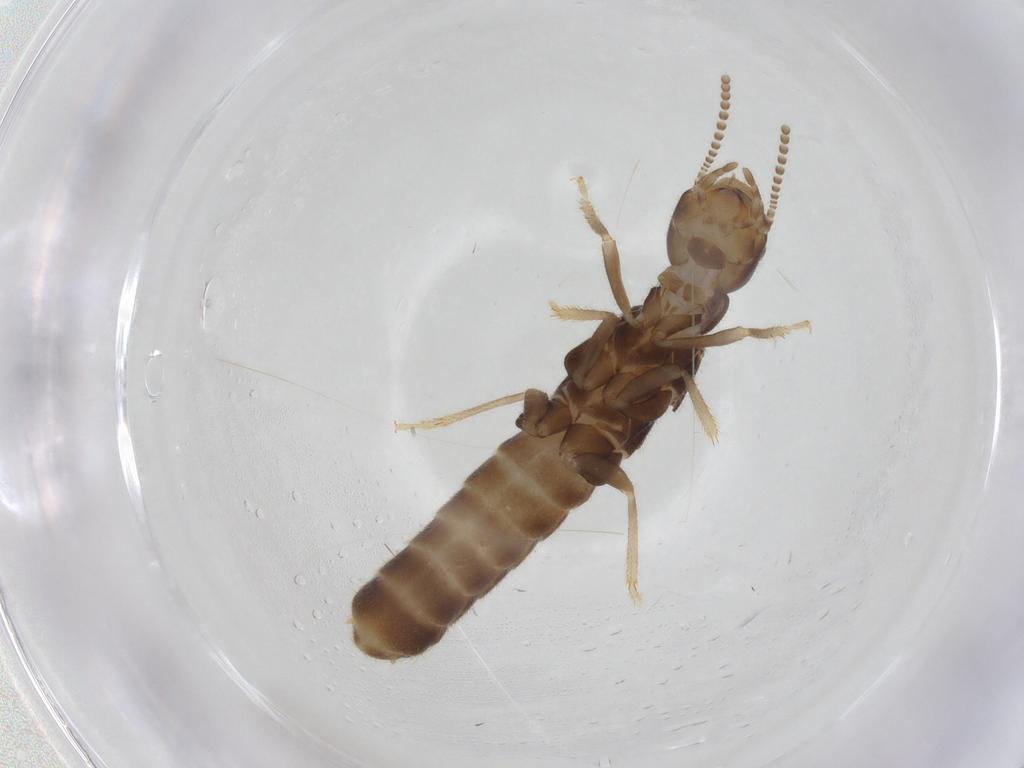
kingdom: Animalia
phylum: Arthropoda
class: Insecta
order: Blattodea
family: Rhinotermitidae
